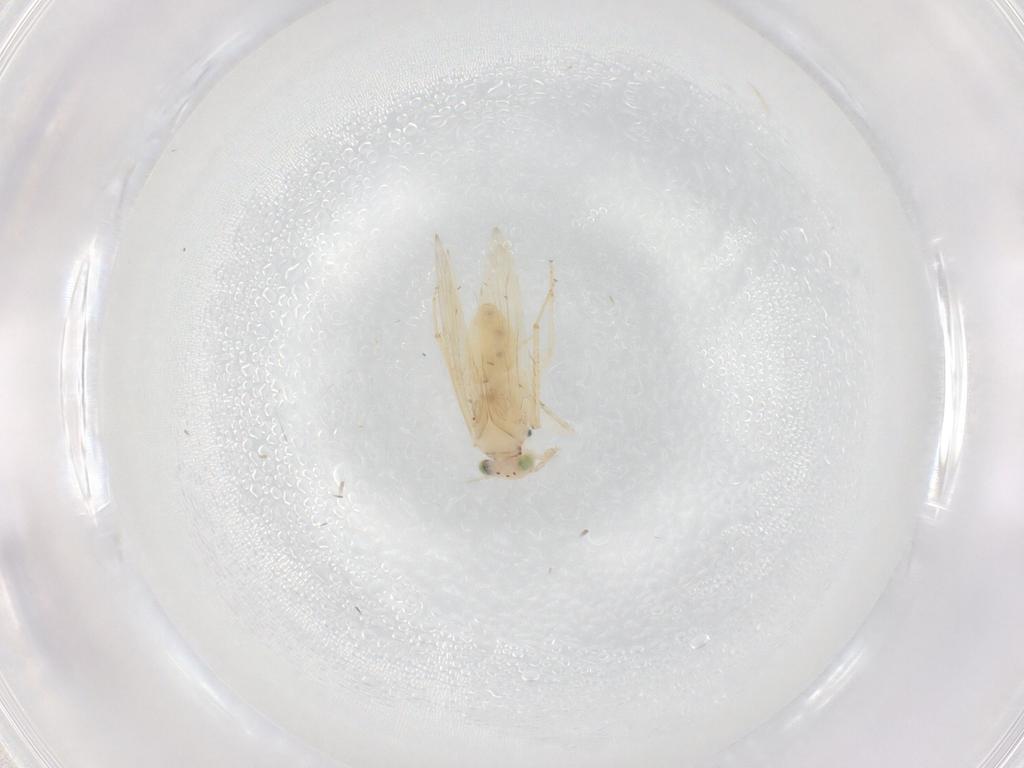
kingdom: Animalia
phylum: Arthropoda
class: Insecta
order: Psocodea
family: Lepidopsocidae
